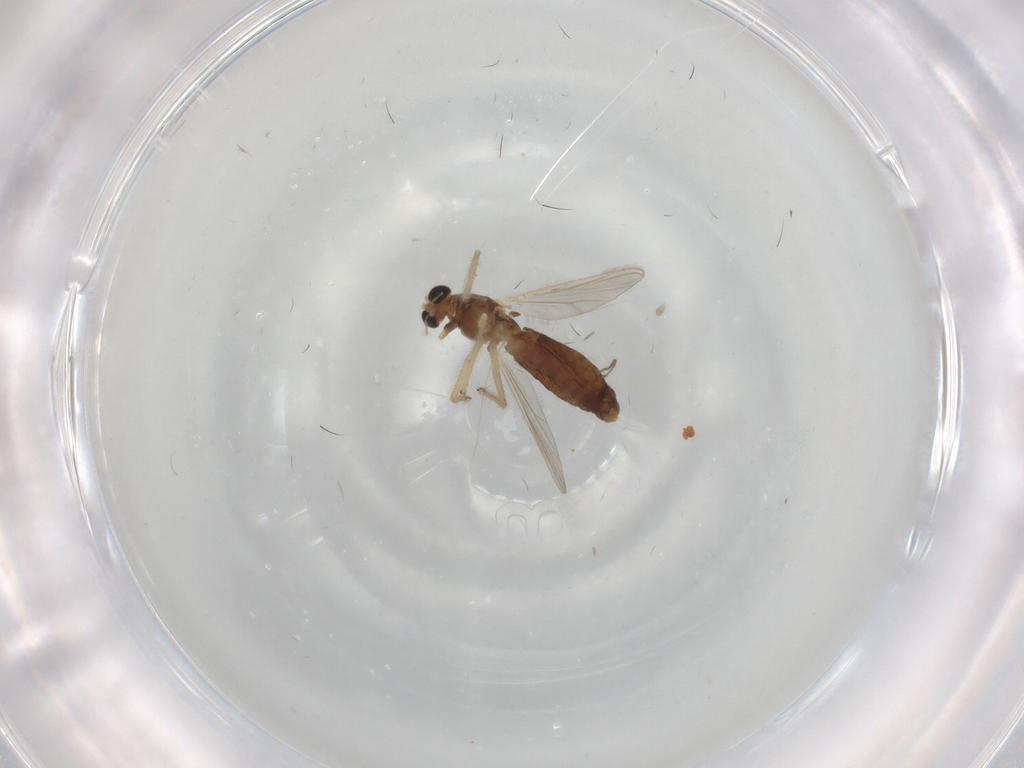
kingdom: Animalia
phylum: Arthropoda
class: Insecta
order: Diptera
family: Chironomidae
